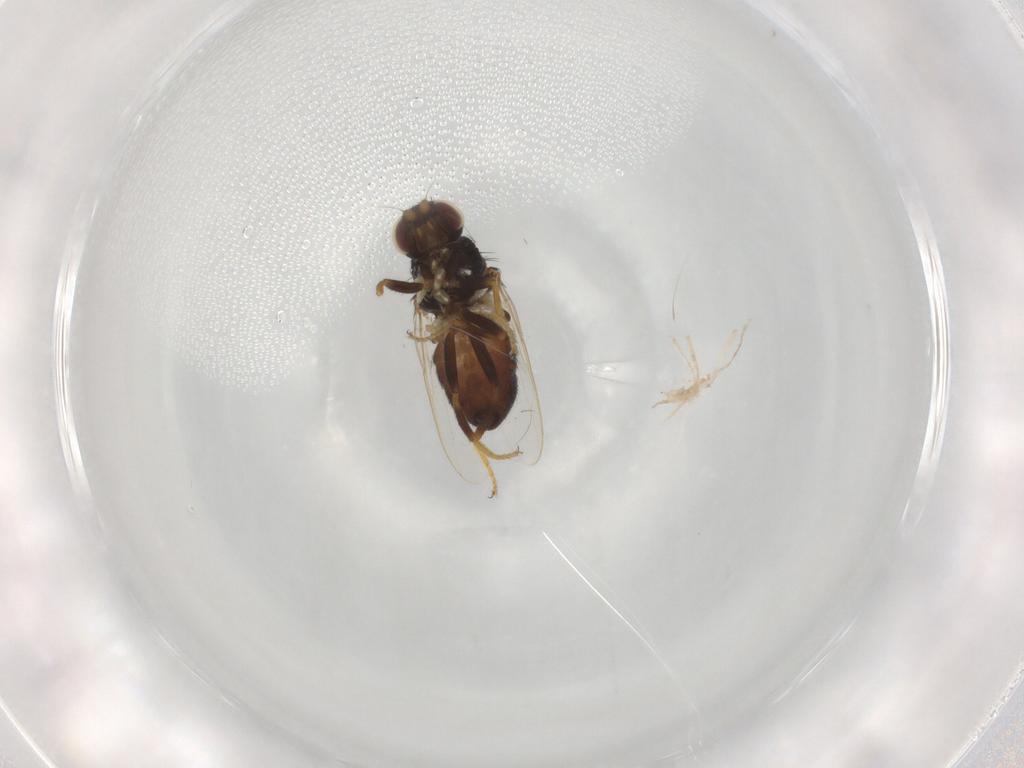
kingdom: Animalia
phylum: Arthropoda
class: Insecta
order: Diptera
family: Chloropidae
